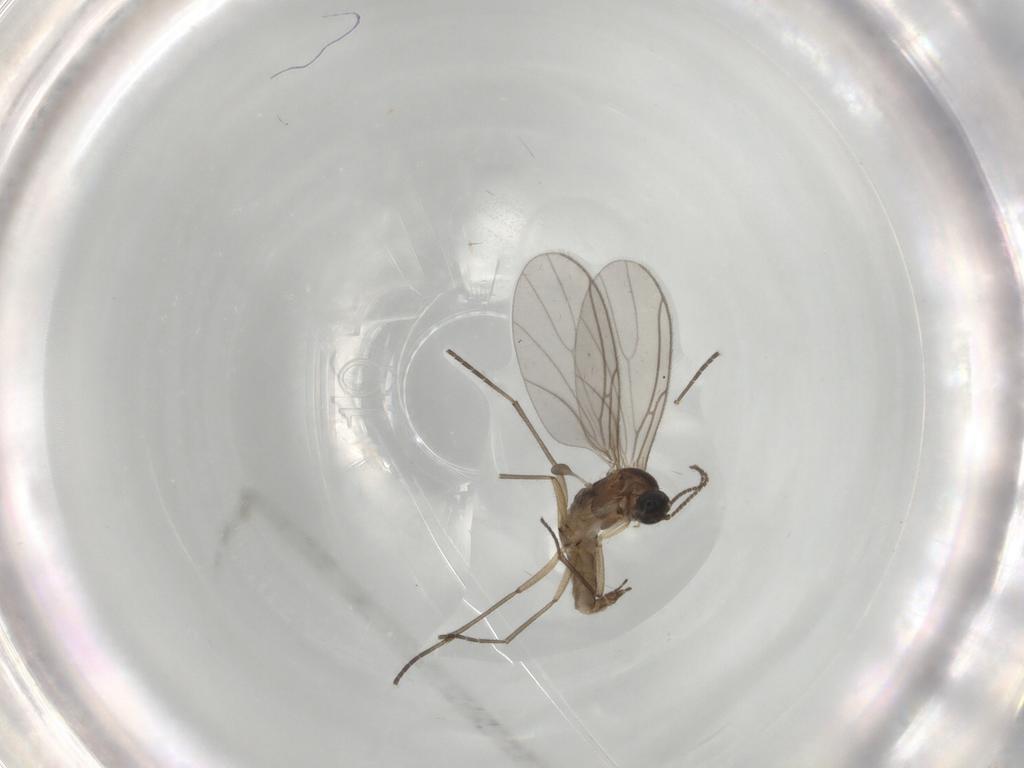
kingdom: Animalia
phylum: Arthropoda
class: Insecta
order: Diptera
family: Sciaridae
